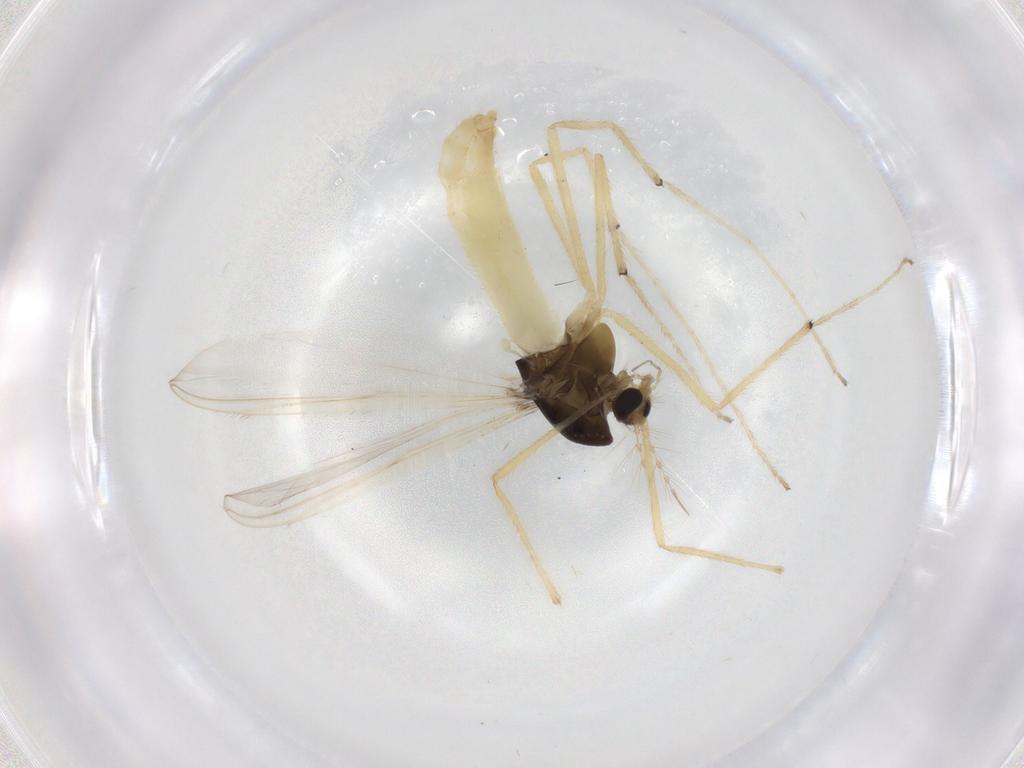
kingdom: Animalia
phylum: Arthropoda
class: Insecta
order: Diptera
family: Chironomidae
